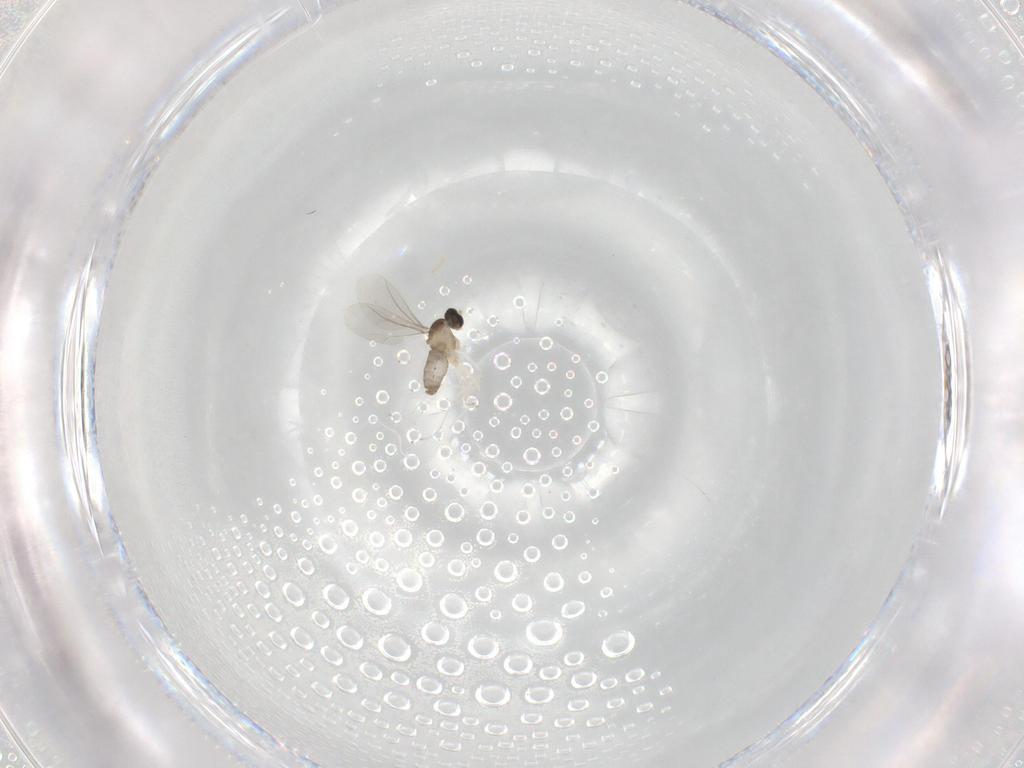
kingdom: Animalia
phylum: Arthropoda
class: Insecta
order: Diptera
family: Cecidomyiidae
